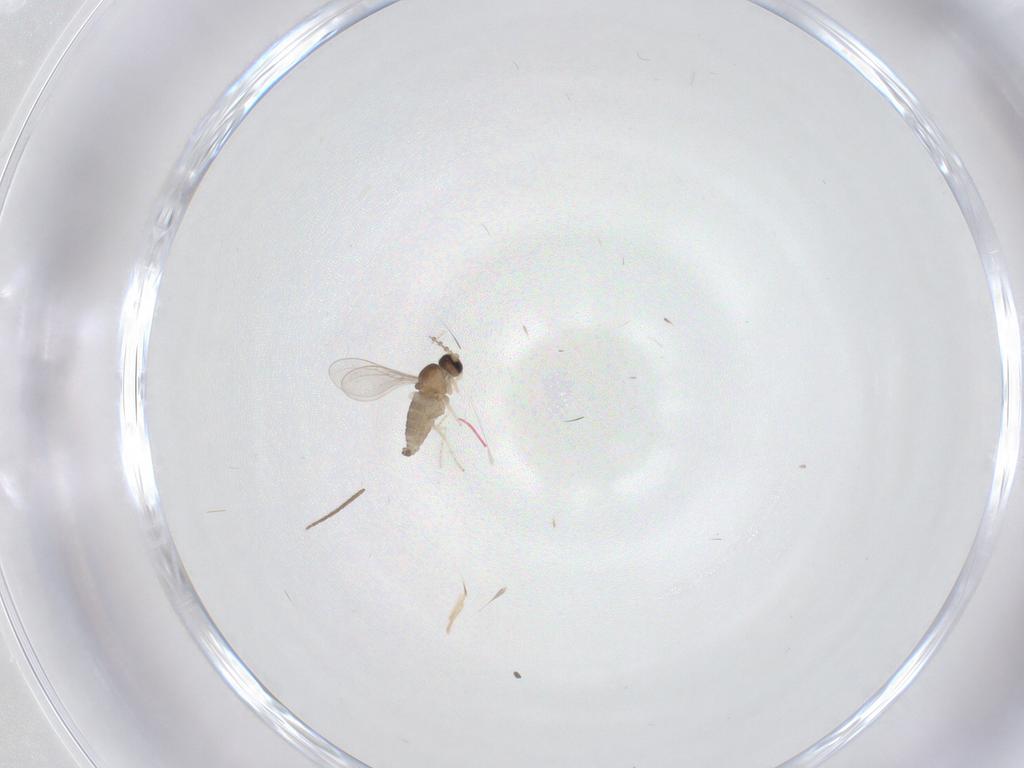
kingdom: Animalia
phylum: Arthropoda
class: Insecta
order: Diptera
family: Cecidomyiidae
